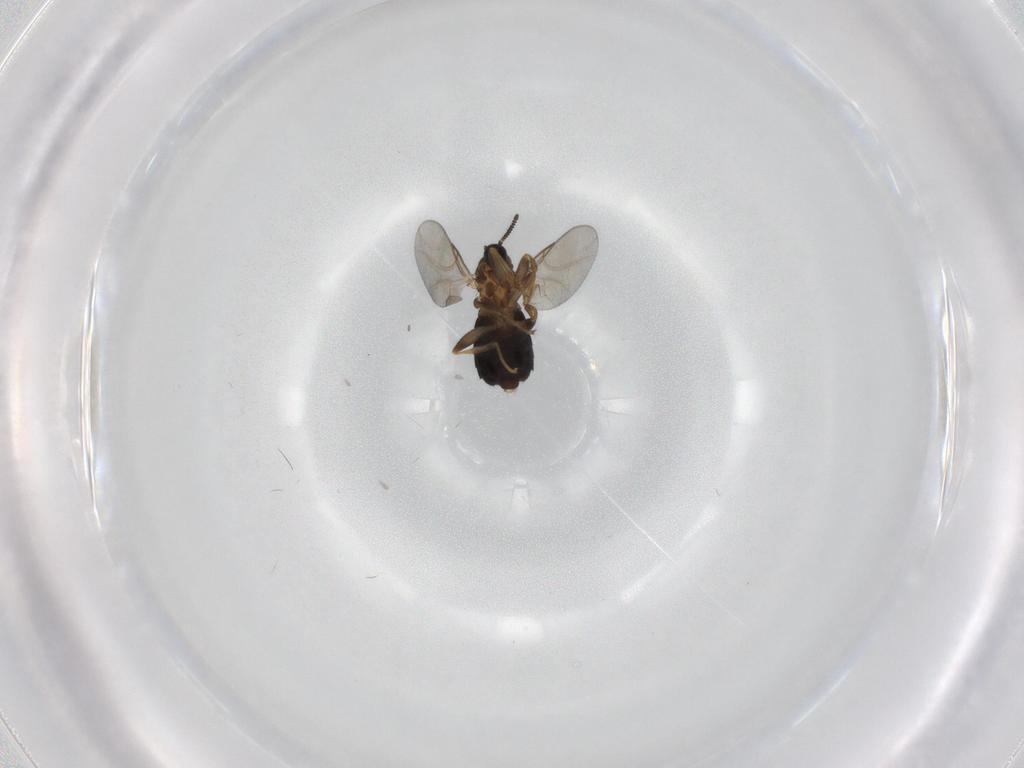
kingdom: Animalia
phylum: Arthropoda
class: Insecta
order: Diptera
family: Scatopsidae
